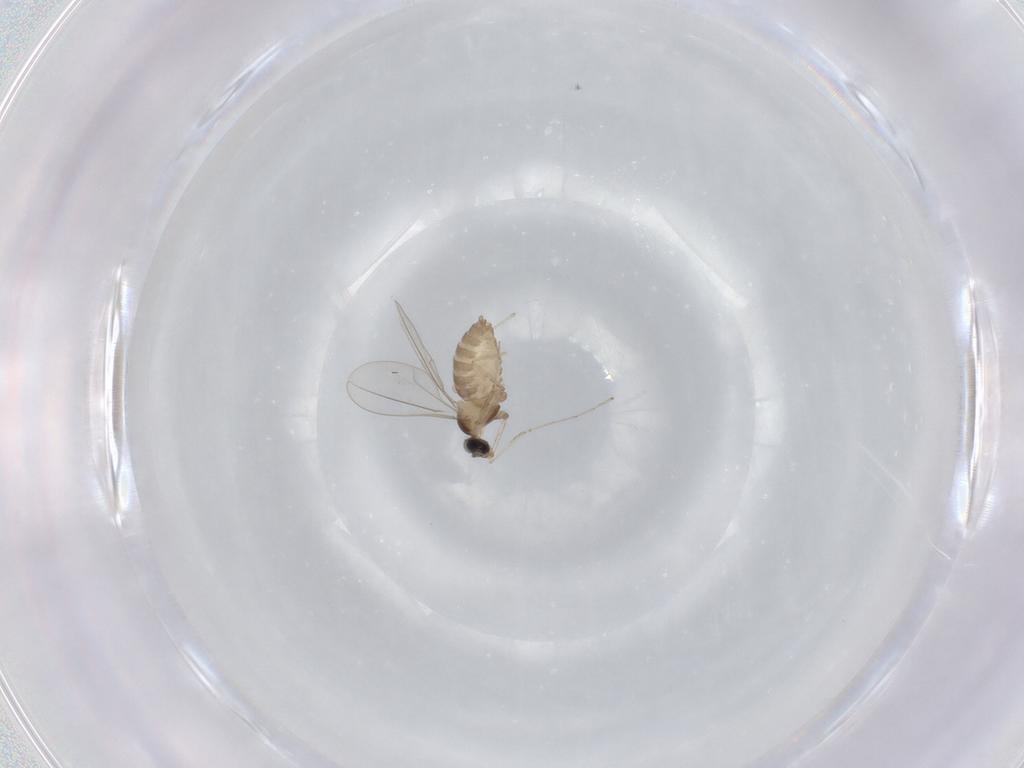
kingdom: Animalia
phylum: Arthropoda
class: Insecta
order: Diptera
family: Cecidomyiidae
